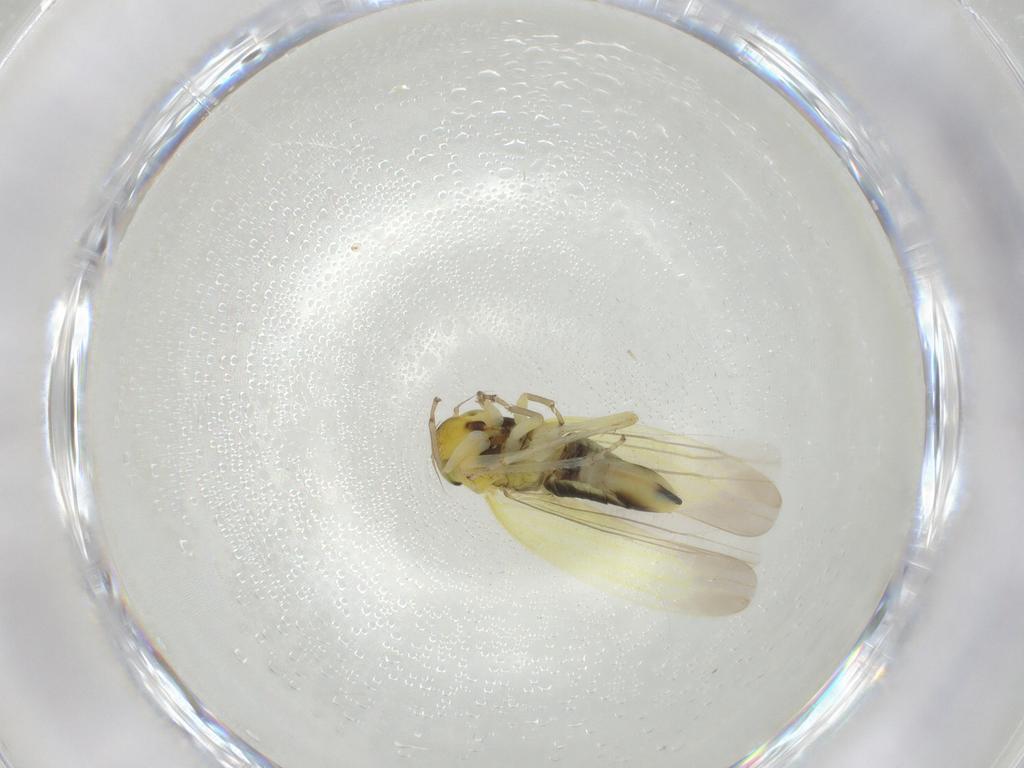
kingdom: Animalia
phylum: Arthropoda
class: Insecta
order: Hemiptera
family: Cicadellidae
